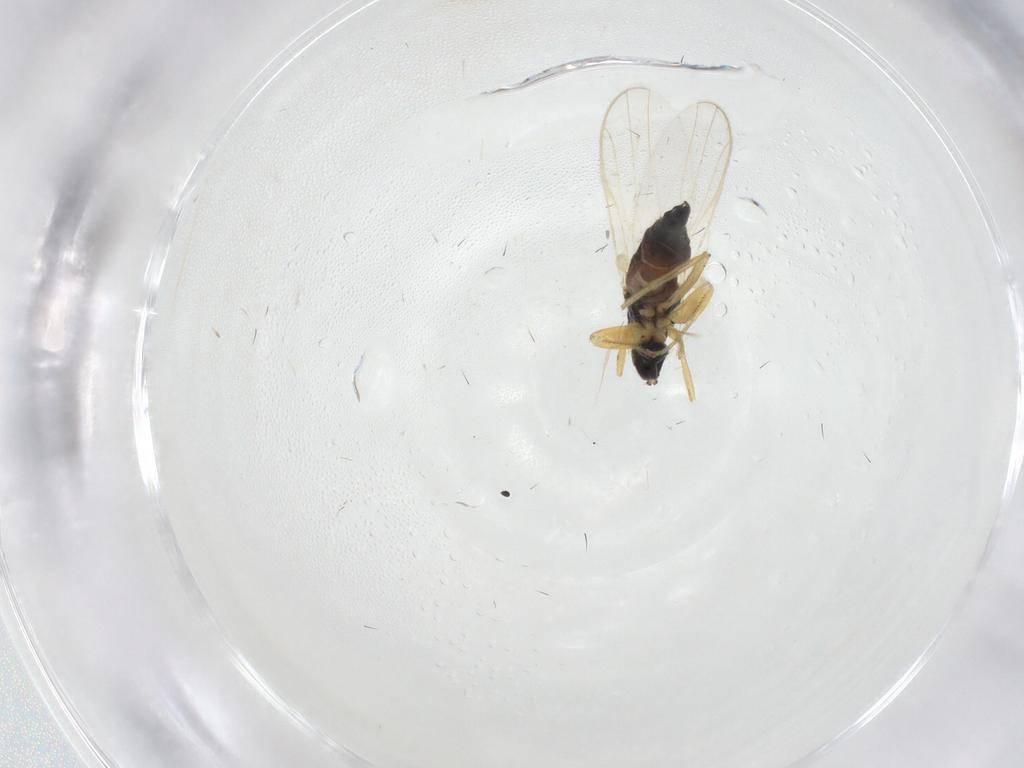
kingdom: Animalia
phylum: Arthropoda
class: Insecta
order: Diptera
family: Hybotidae
